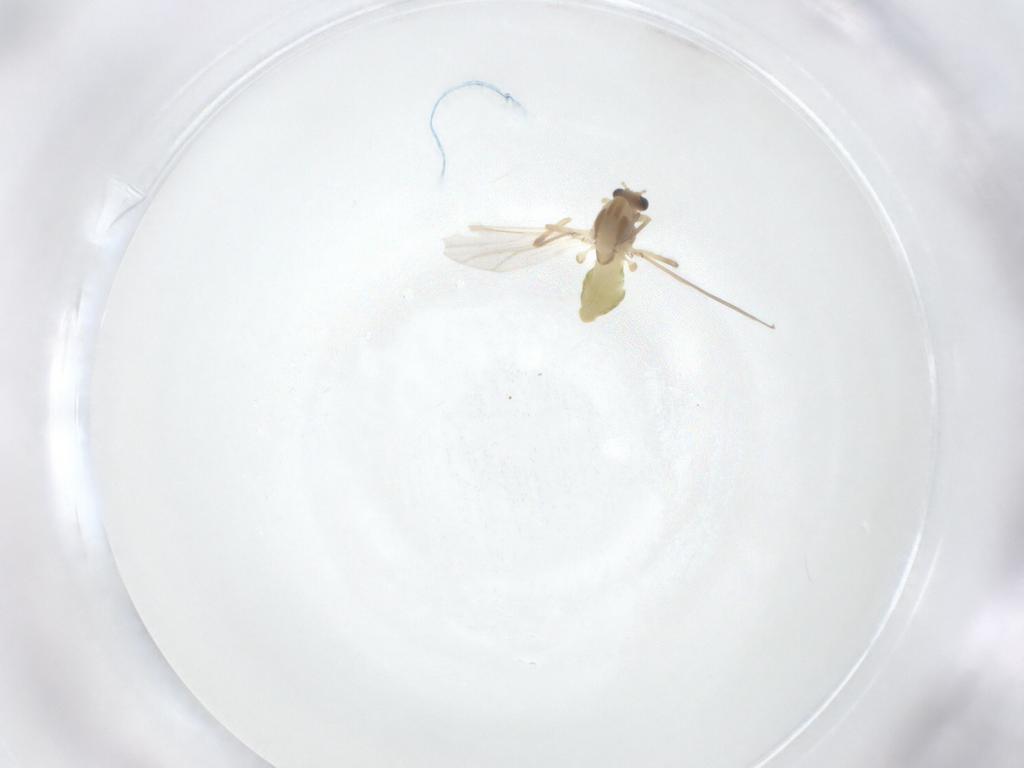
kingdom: Animalia
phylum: Arthropoda
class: Insecta
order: Diptera
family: Chironomidae
